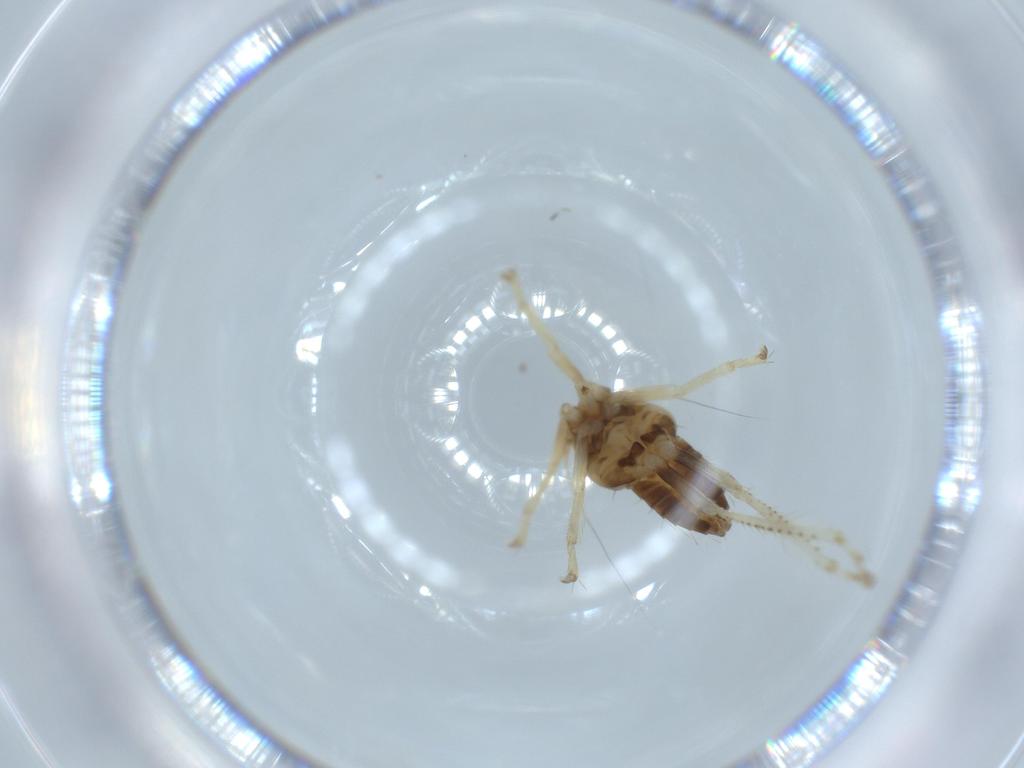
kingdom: Animalia
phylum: Arthropoda
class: Insecta
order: Hemiptera
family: Cicadellidae
